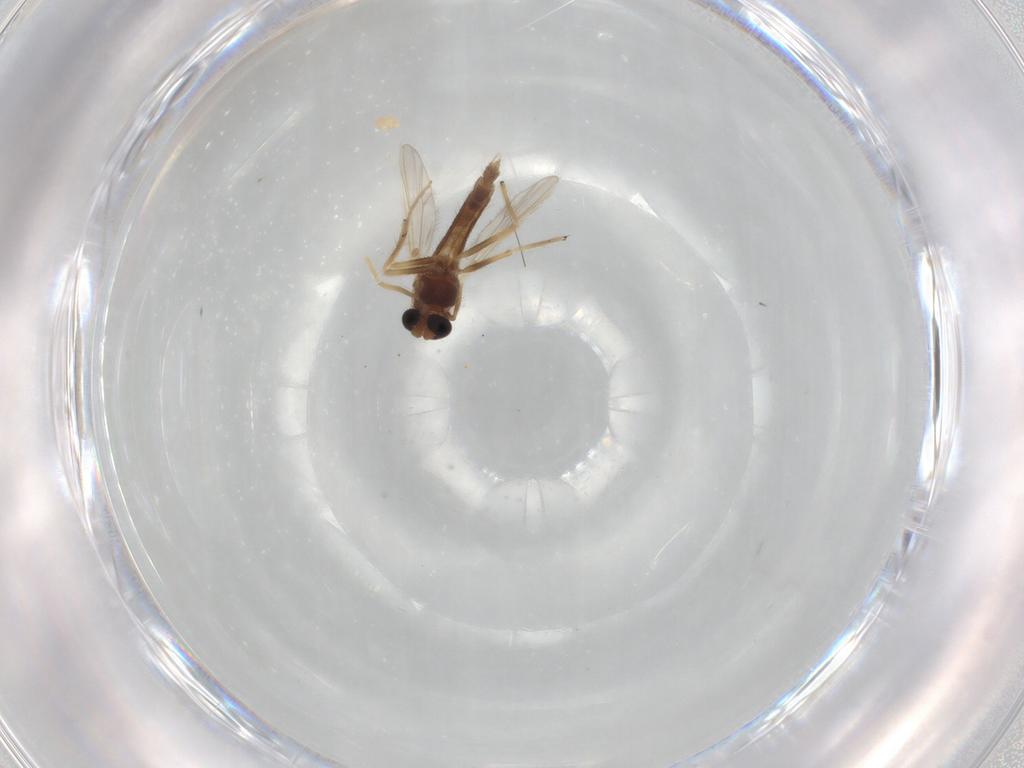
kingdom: Animalia
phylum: Arthropoda
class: Insecta
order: Diptera
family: Chironomidae
